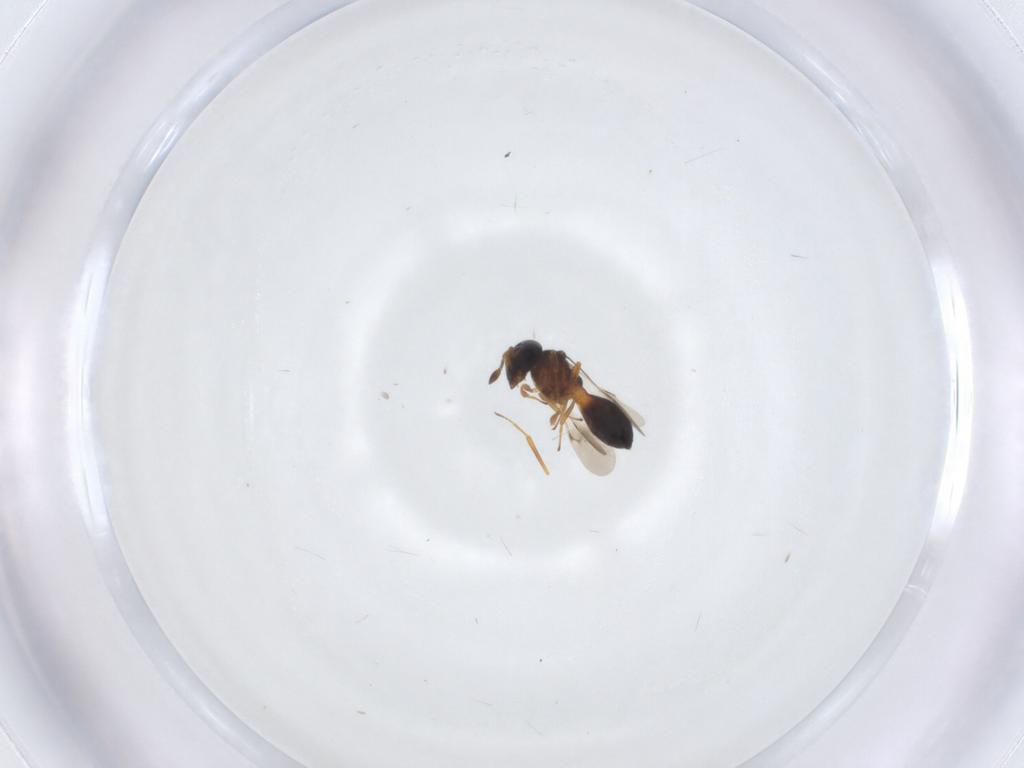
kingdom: Animalia
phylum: Arthropoda
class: Insecta
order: Hymenoptera
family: Scelionidae
